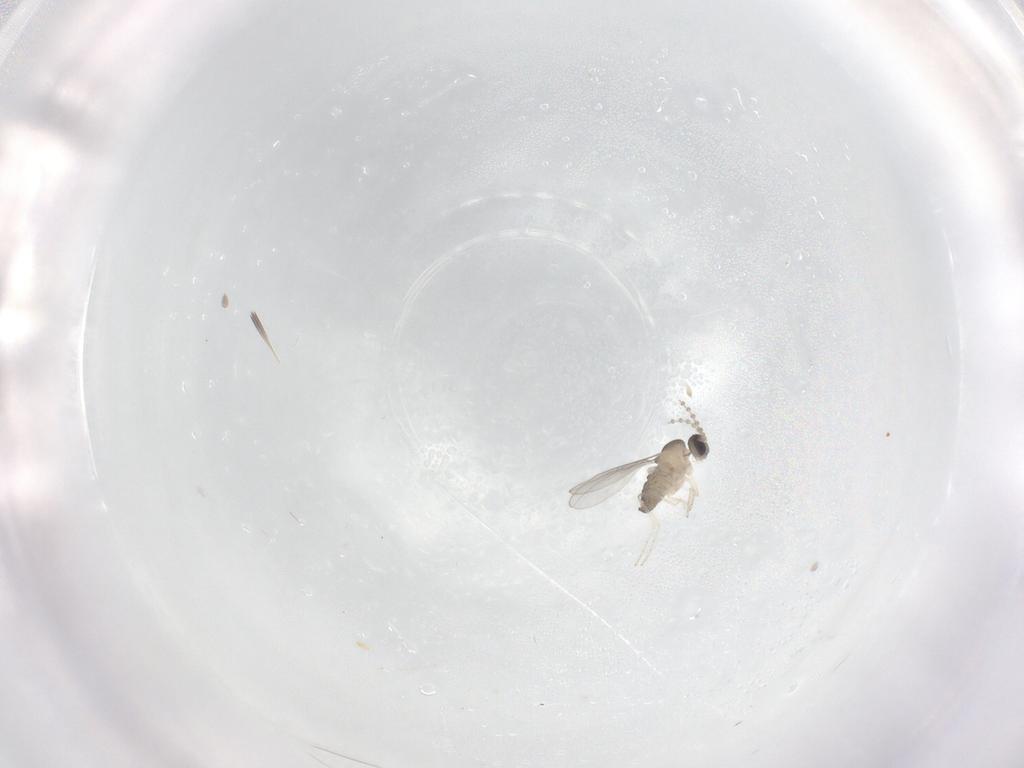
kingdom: Animalia
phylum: Arthropoda
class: Insecta
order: Diptera
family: Cecidomyiidae
